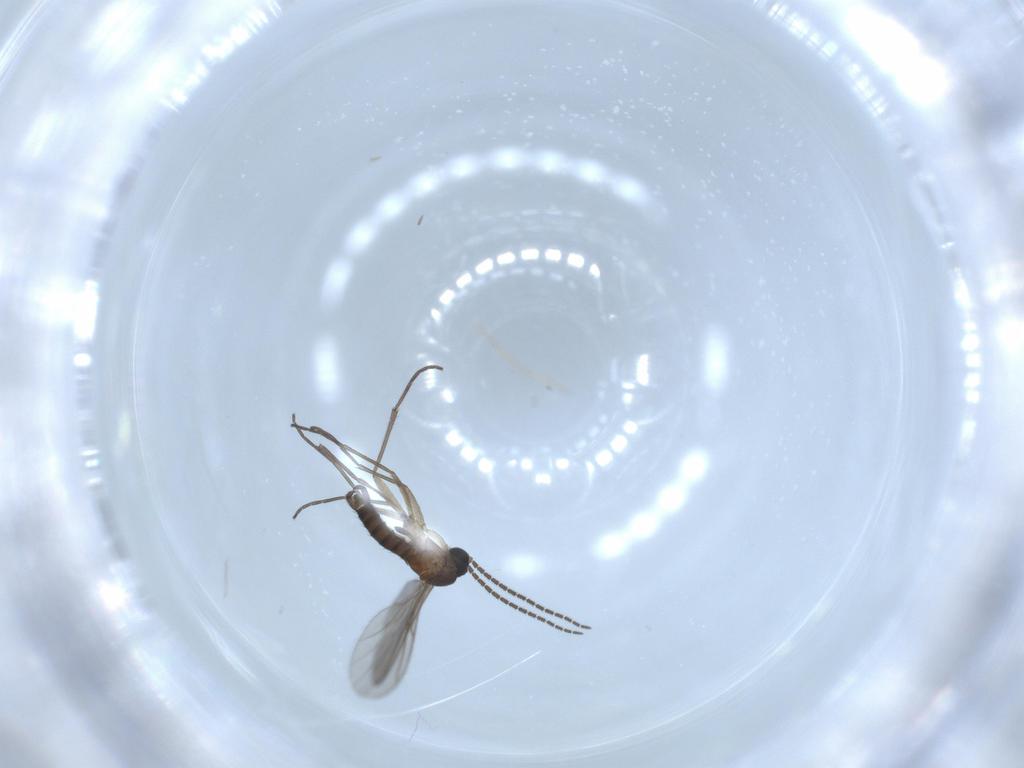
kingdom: Animalia
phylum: Arthropoda
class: Insecta
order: Diptera
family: Sciaridae
